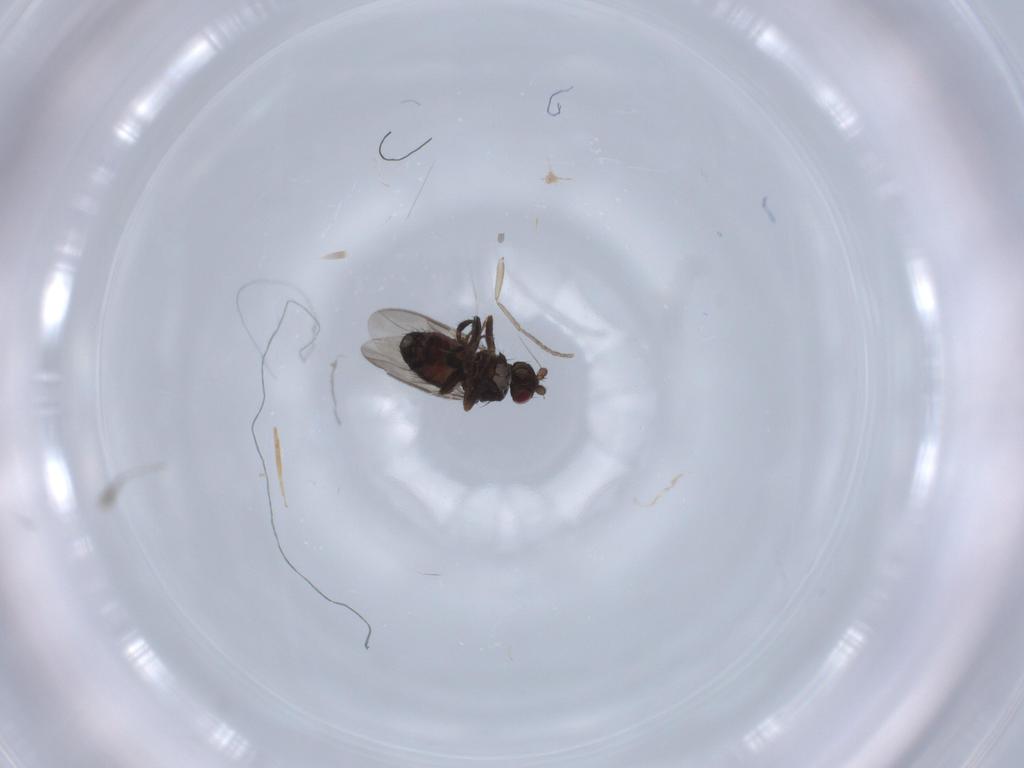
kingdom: Animalia
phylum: Arthropoda
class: Insecta
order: Diptera
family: Sphaeroceridae
